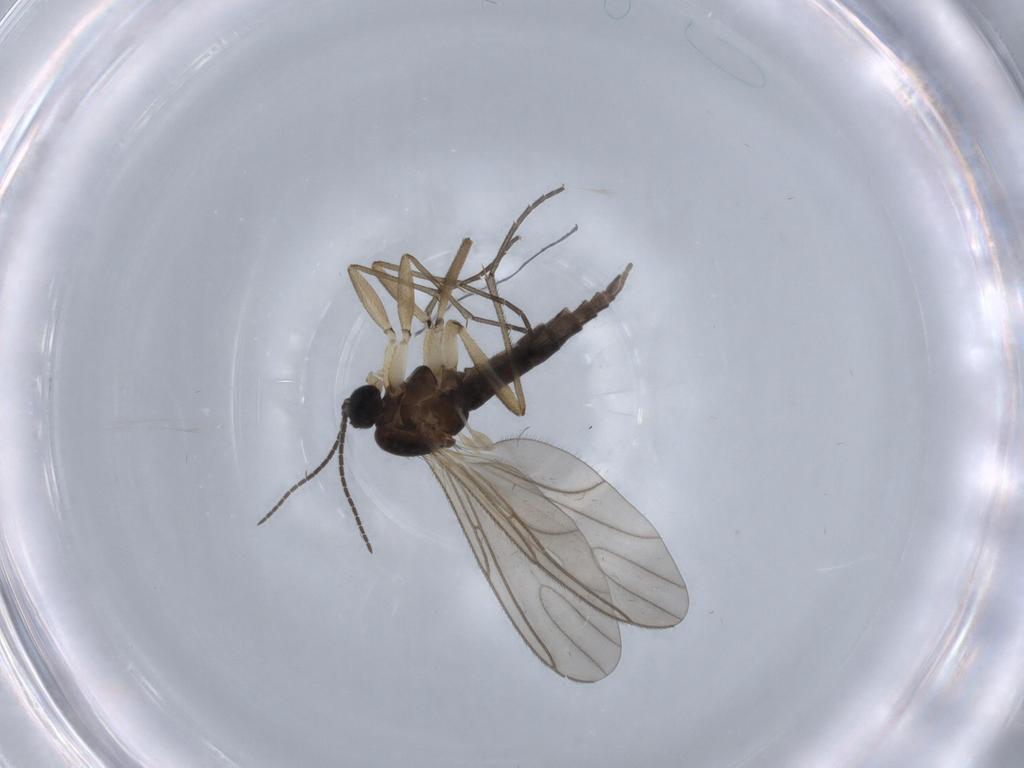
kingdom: Animalia
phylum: Arthropoda
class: Insecta
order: Diptera
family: Sciaridae
